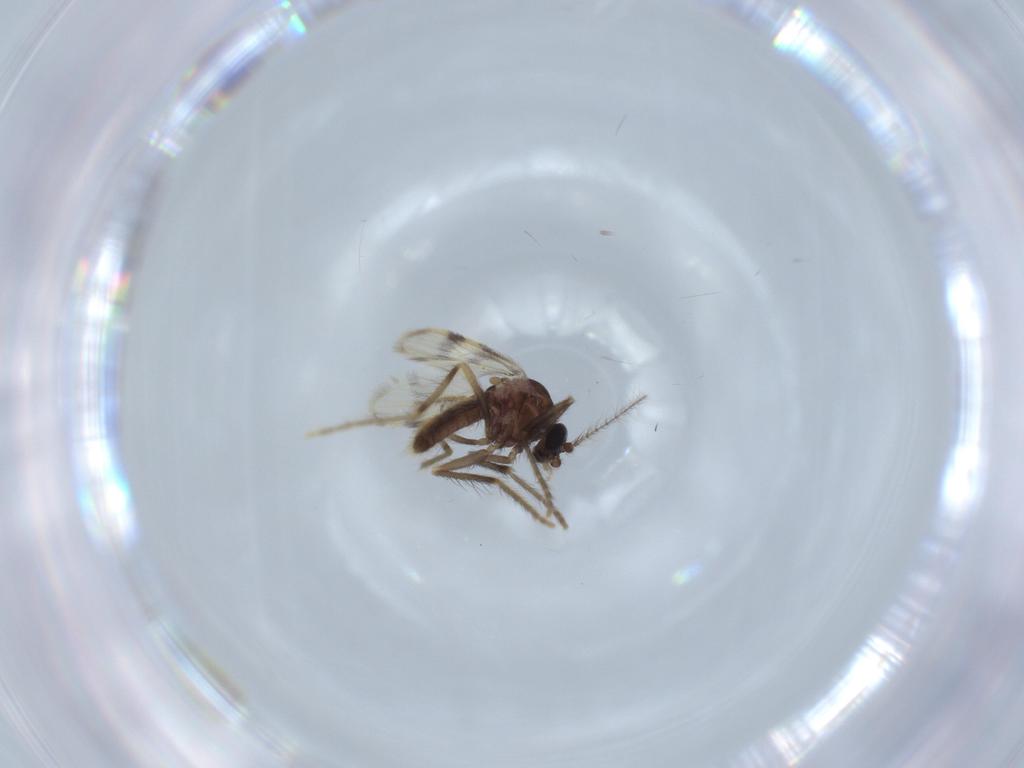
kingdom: Animalia
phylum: Arthropoda
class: Insecta
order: Diptera
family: Corethrellidae
